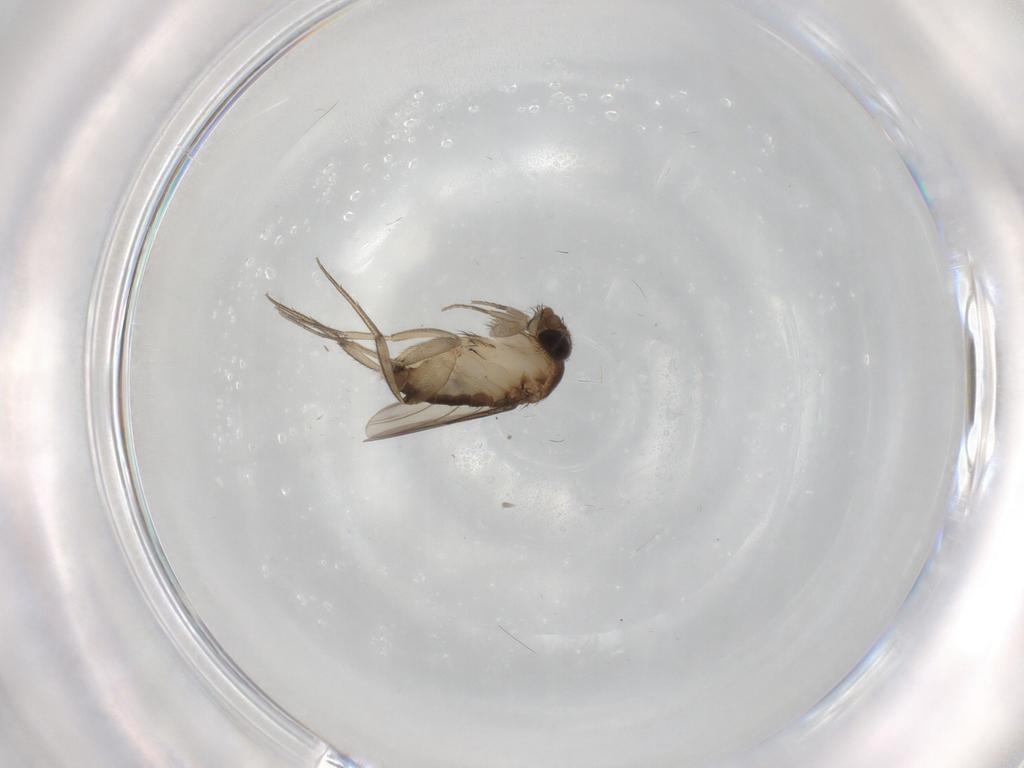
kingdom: Animalia
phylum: Arthropoda
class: Insecta
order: Diptera
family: Phoridae
